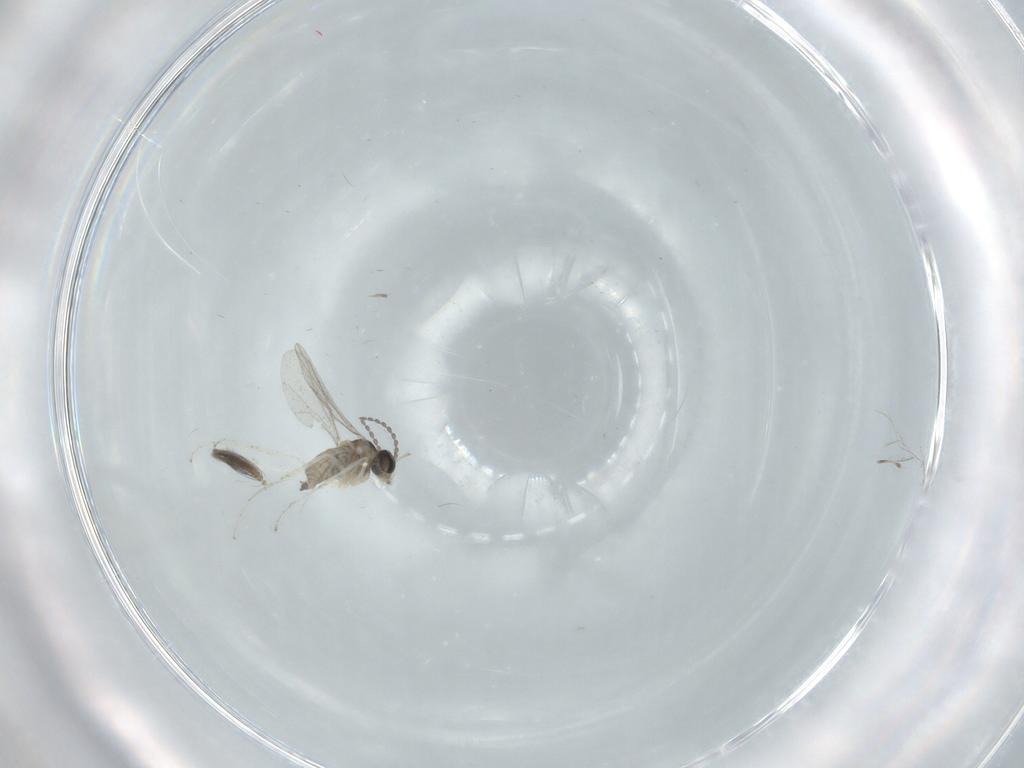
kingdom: Animalia
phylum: Arthropoda
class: Insecta
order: Diptera
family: Ceratopogonidae
